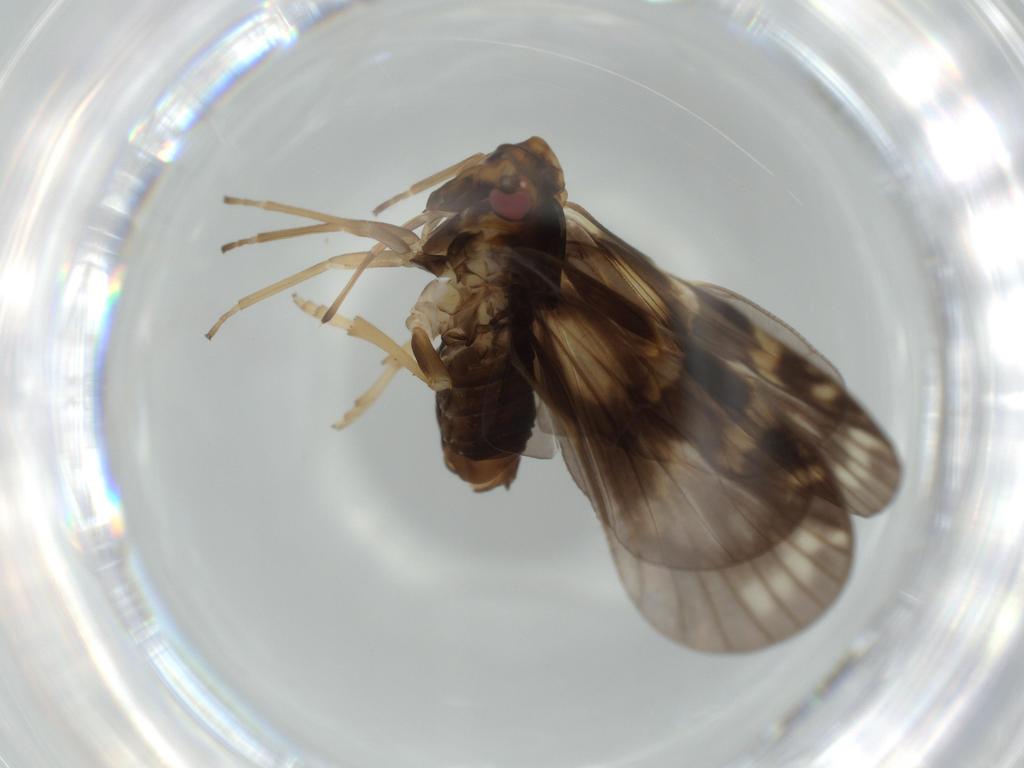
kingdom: Animalia
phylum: Arthropoda
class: Insecta
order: Hemiptera
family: Cixiidae
